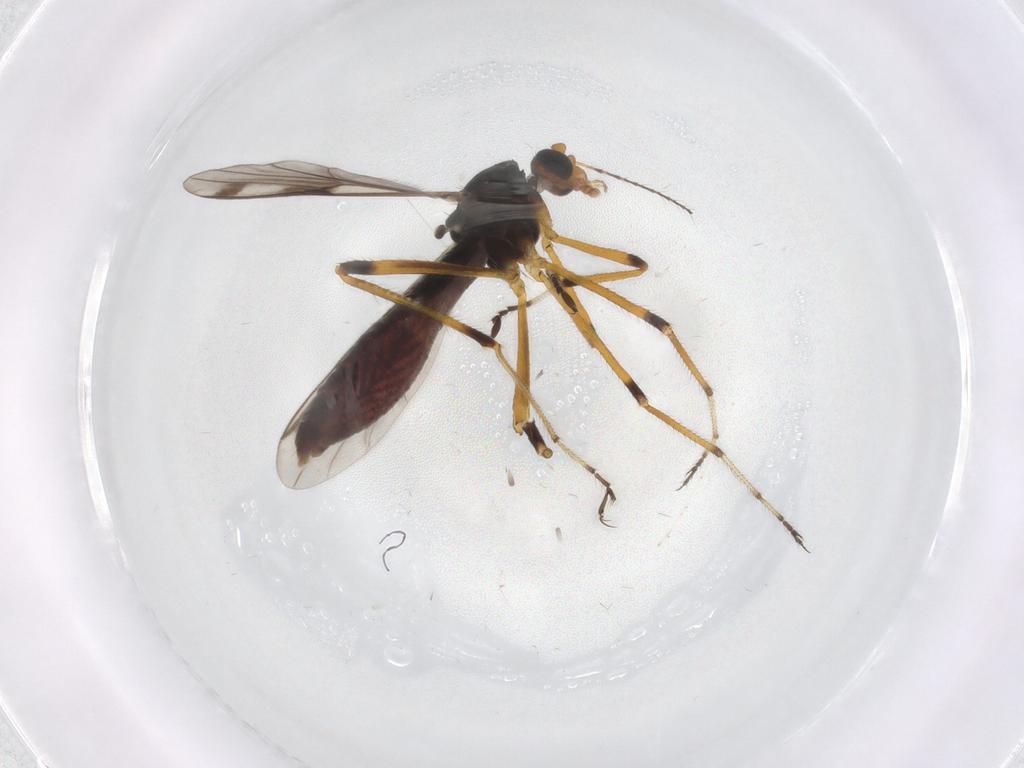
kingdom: Animalia
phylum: Arthropoda
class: Insecta
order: Diptera
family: Ceratopogonidae
